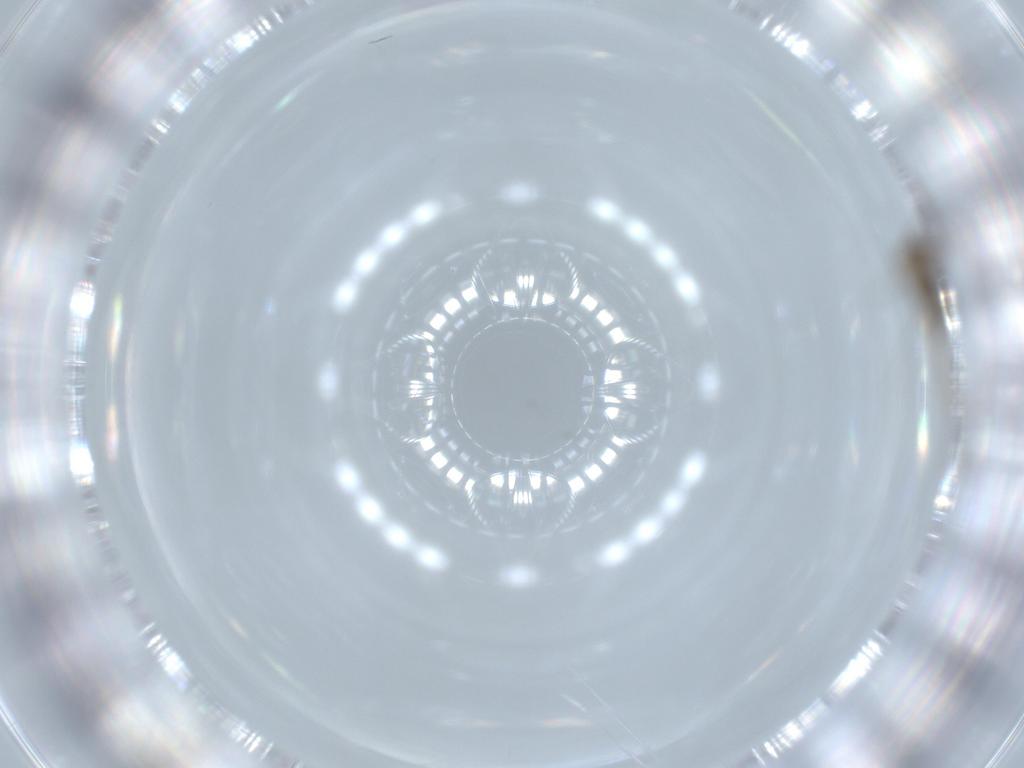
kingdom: Animalia
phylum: Arthropoda
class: Insecta
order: Diptera
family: Cecidomyiidae
